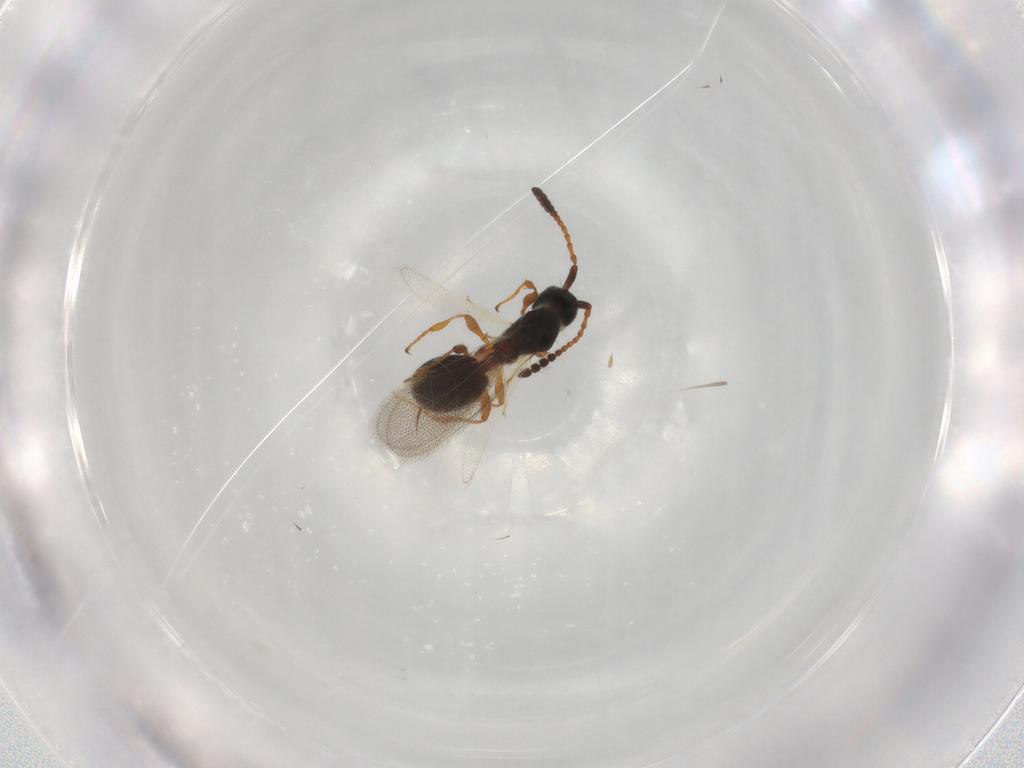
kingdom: Animalia
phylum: Arthropoda
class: Insecta
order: Hymenoptera
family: Diapriidae
